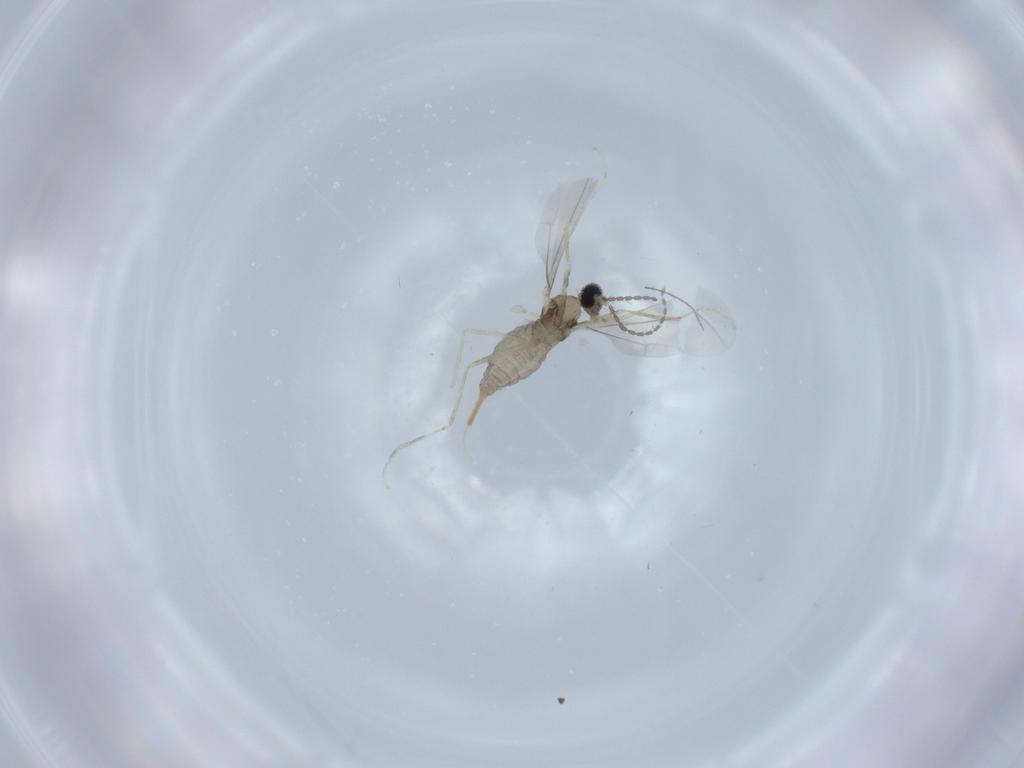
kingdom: Animalia
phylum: Arthropoda
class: Insecta
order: Diptera
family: Cecidomyiidae
